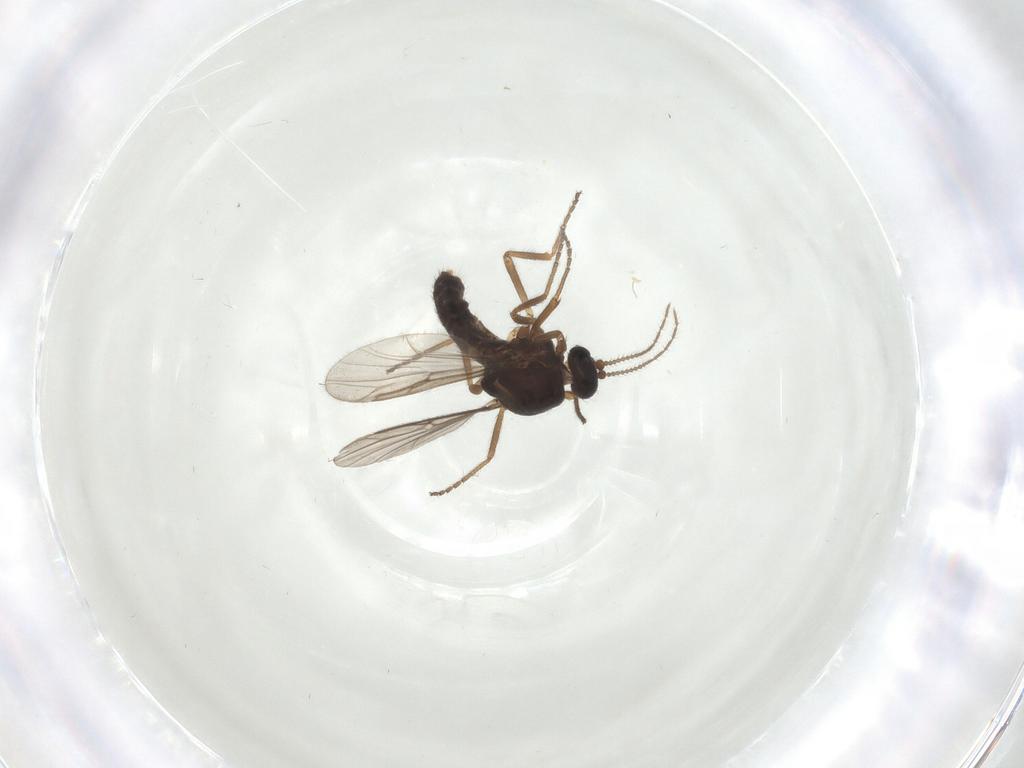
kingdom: Animalia
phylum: Arthropoda
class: Insecta
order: Diptera
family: Ceratopogonidae
